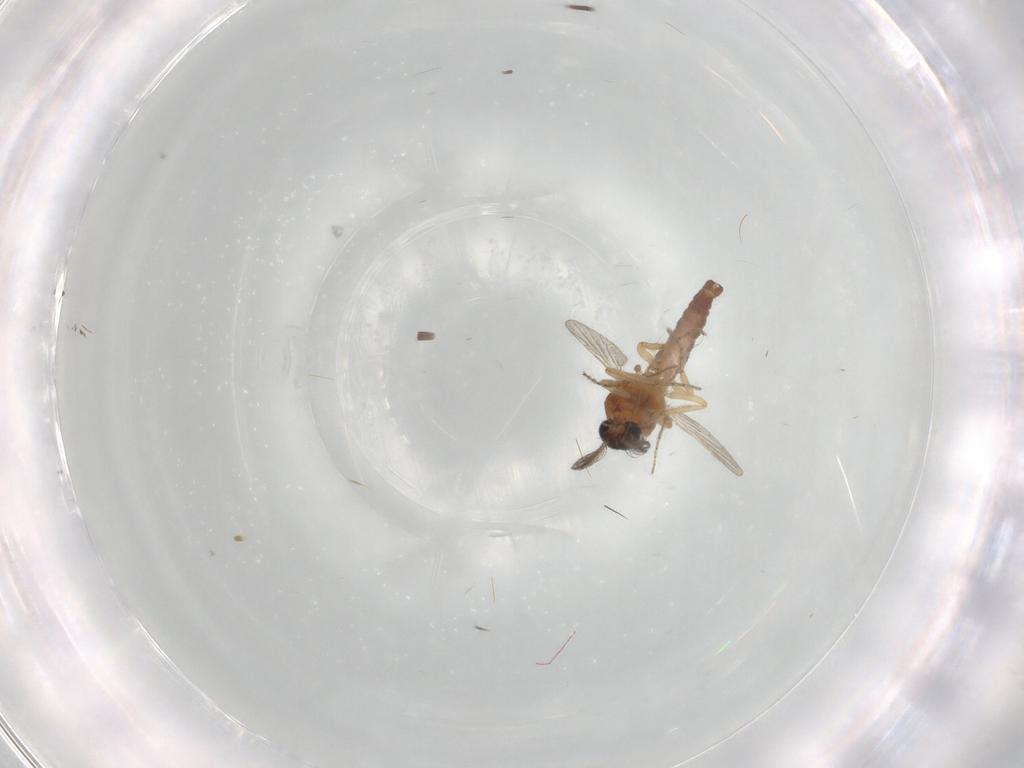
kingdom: Animalia
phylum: Arthropoda
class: Insecta
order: Diptera
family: Ceratopogonidae
